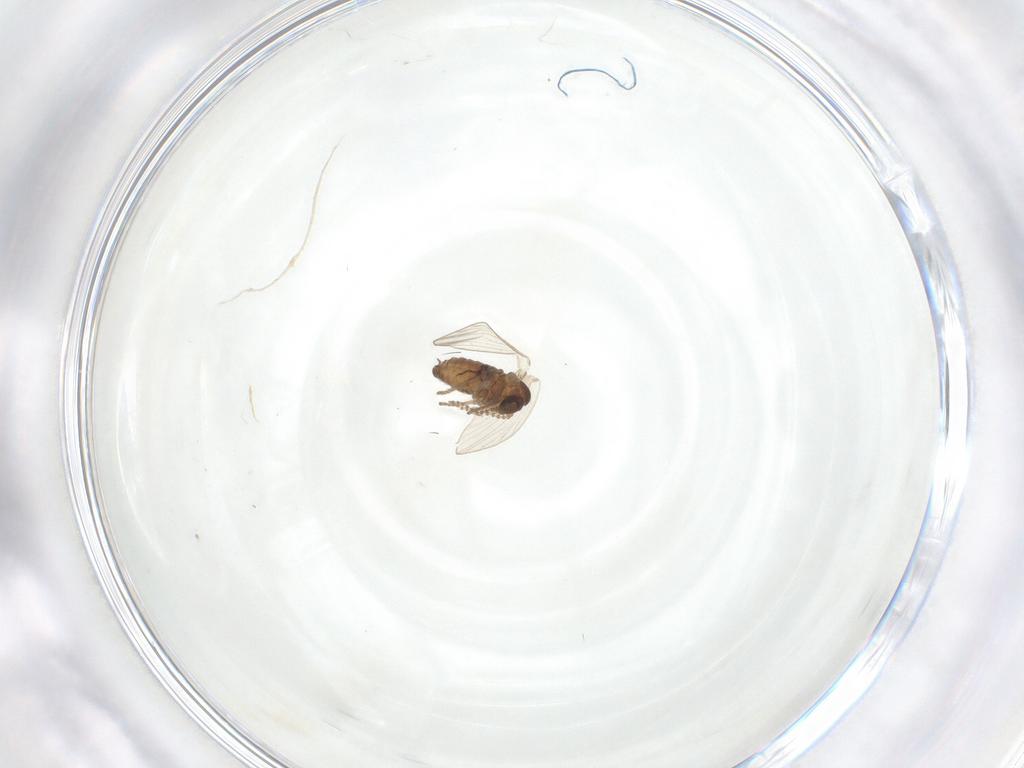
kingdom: Animalia
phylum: Arthropoda
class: Insecta
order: Diptera
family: Psychodidae
